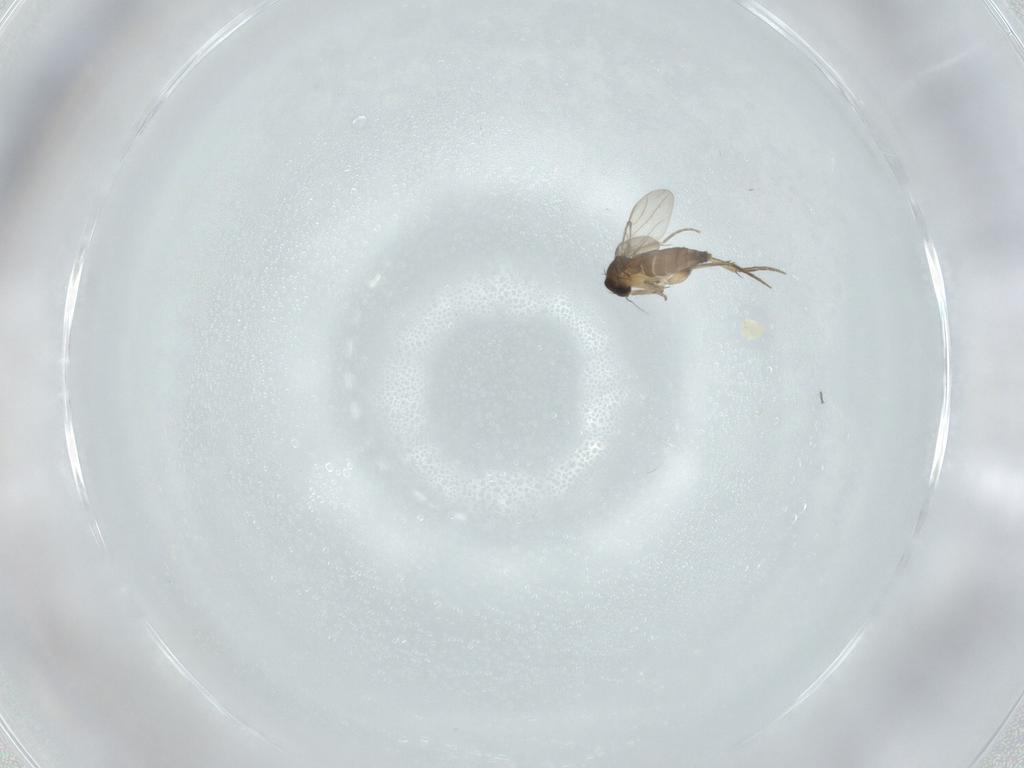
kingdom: Animalia
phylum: Arthropoda
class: Insecta
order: Diptera
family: Phoridae
